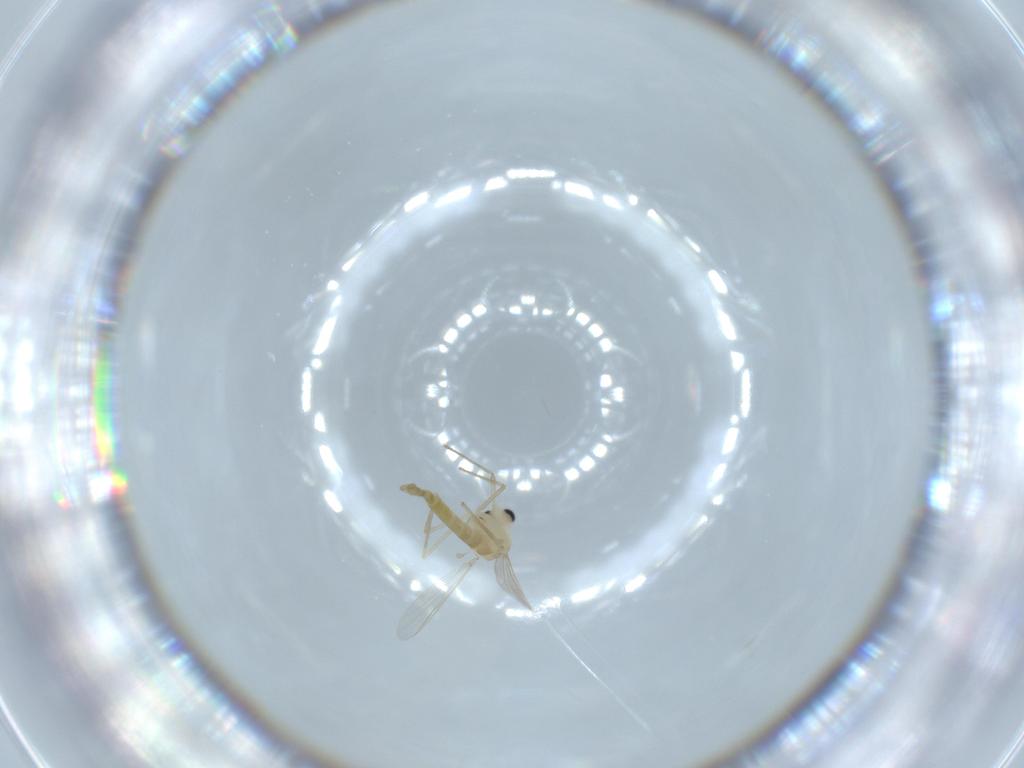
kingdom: Animalia
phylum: Arthropoda
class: Insecta
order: Diptera
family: Chironomidae
